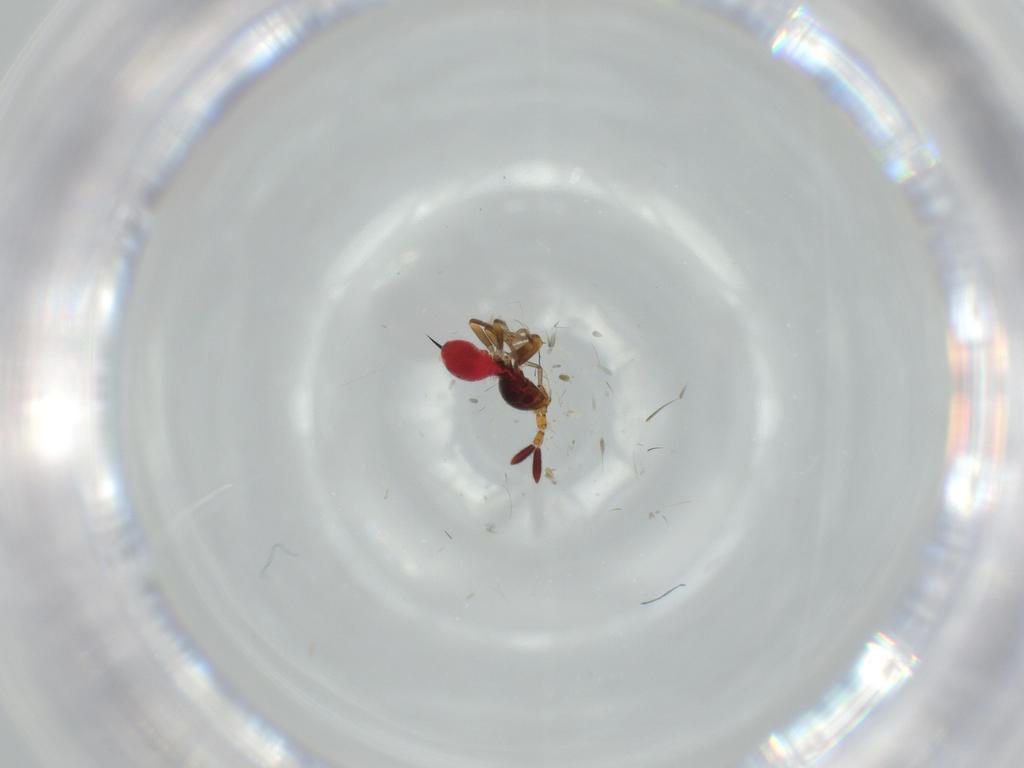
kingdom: Animalia
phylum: Arthropoda
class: Insecta
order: Hemiptera
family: Rhyparochromidae
